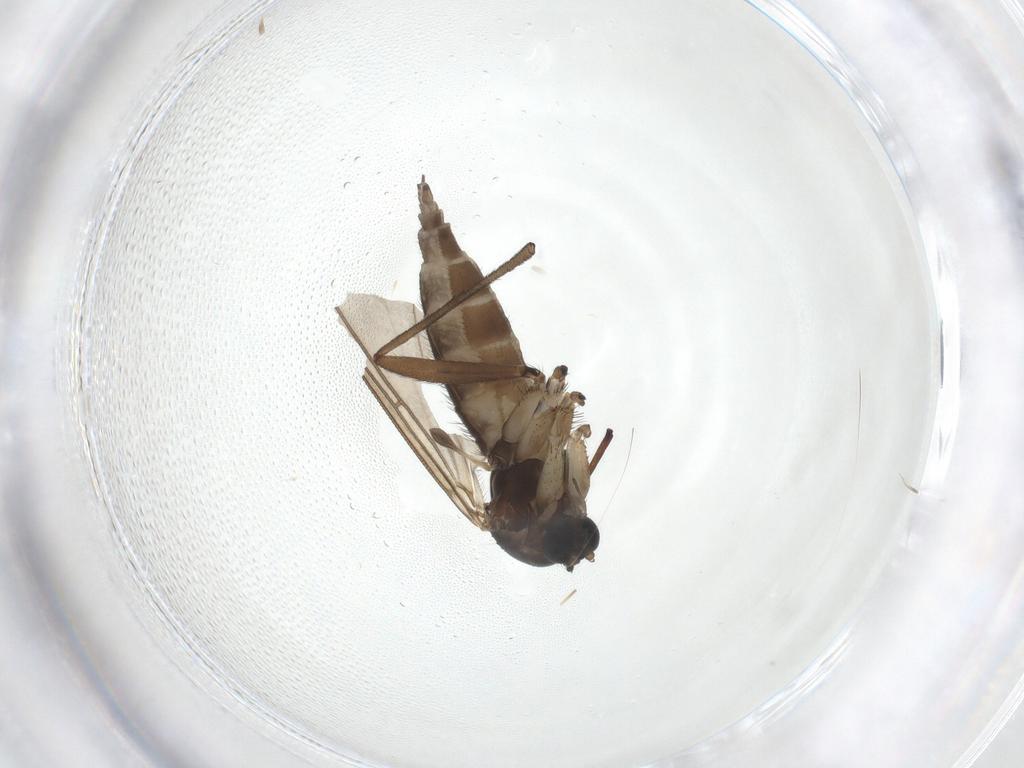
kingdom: Animalia
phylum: Arthropoda
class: Insecta
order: Diptera
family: Sciaridae
